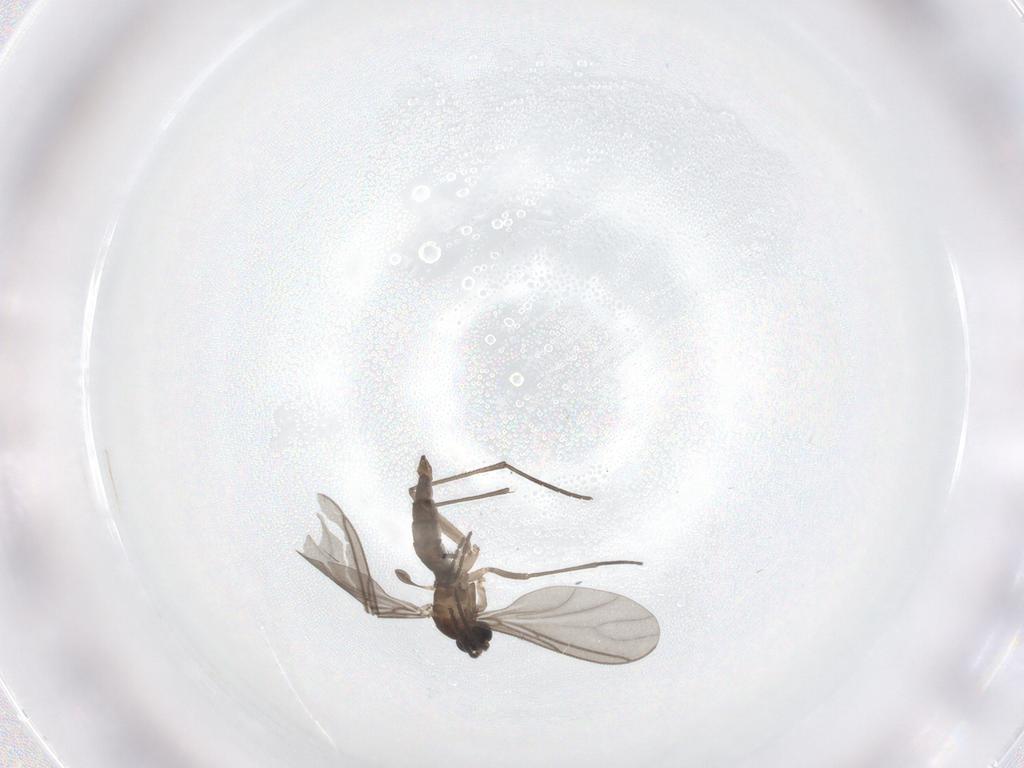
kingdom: Animalia
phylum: Arthropoda
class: Insecta
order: Diptera
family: Sciaridae
